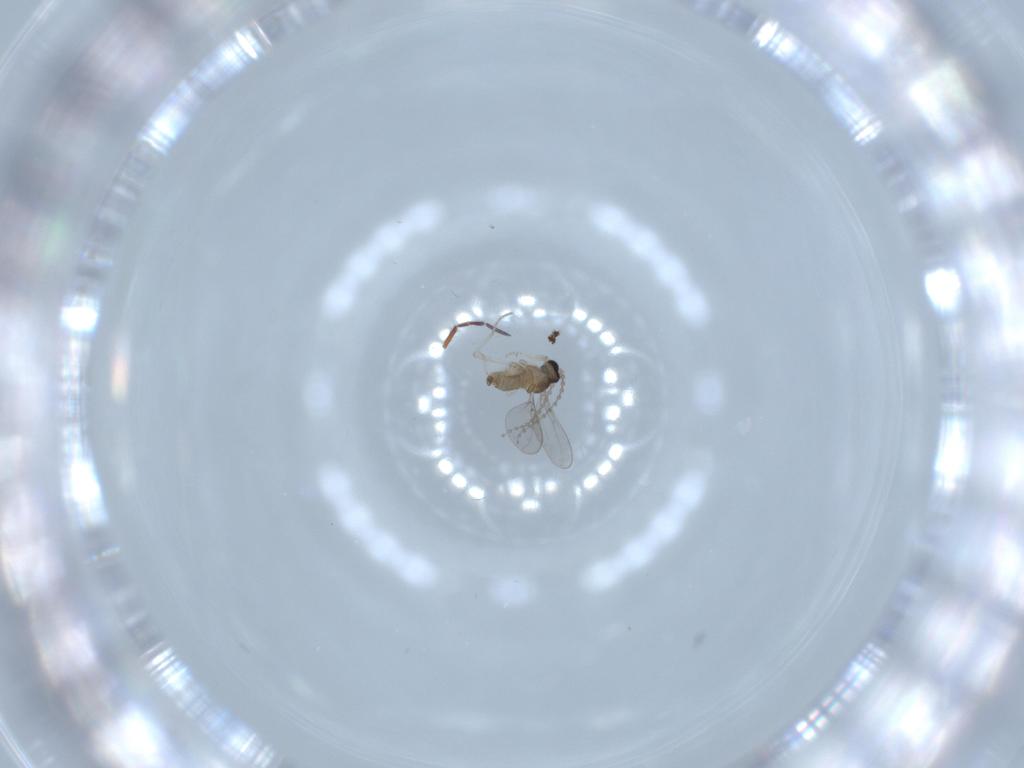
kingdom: Animalia
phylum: Arthropoda
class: Insecta
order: Diptera
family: Cecidomyiidae
